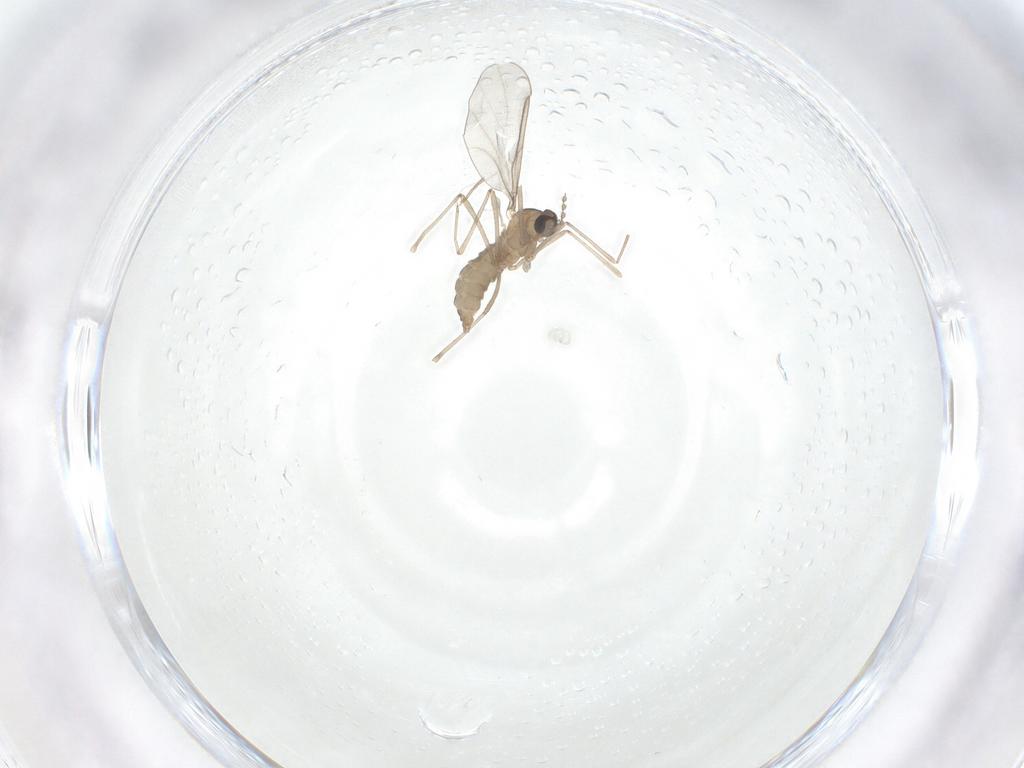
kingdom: Animalia
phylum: Arthropoda
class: Insecta
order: Diptera
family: Cecidomyiidae
